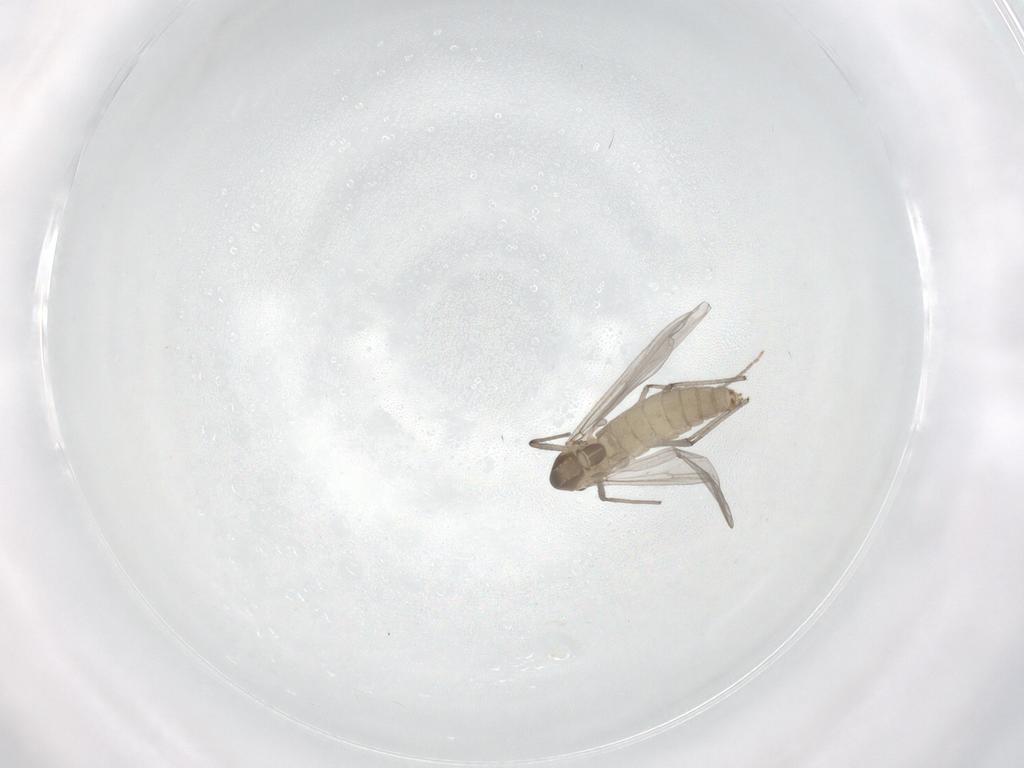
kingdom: Animalia
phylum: Arthropoda
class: Insecta
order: Diptera
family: Chironomidae
